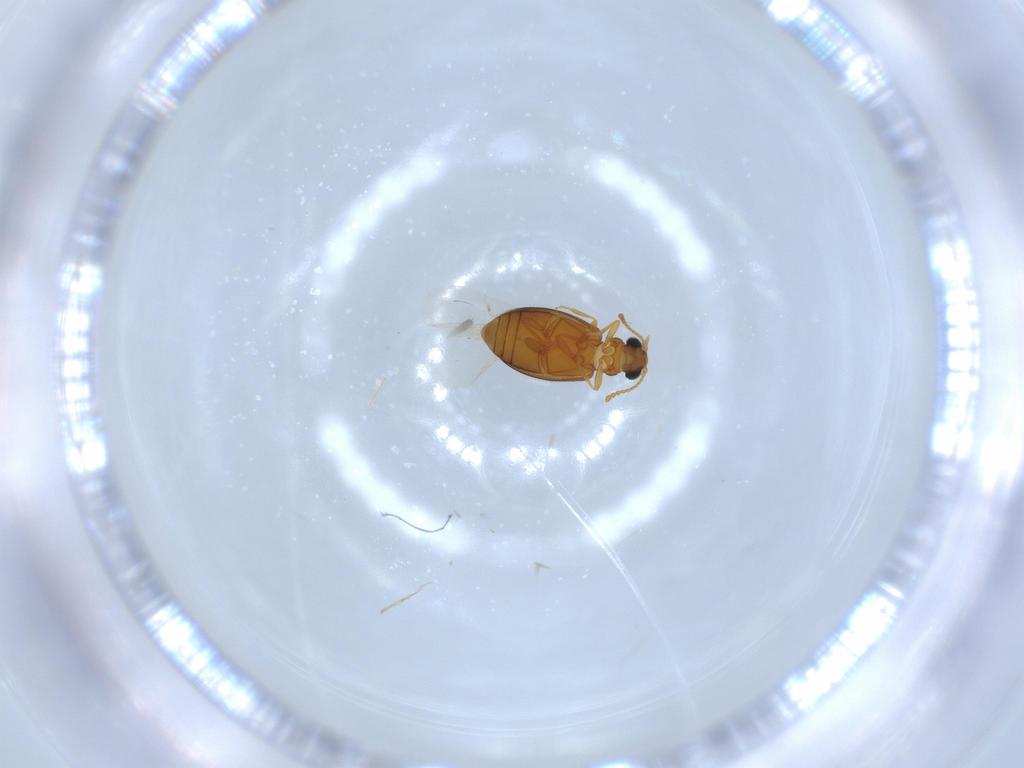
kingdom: Animalia
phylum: Arthropoda
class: Insecta
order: Coleoptera
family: Aderidae
